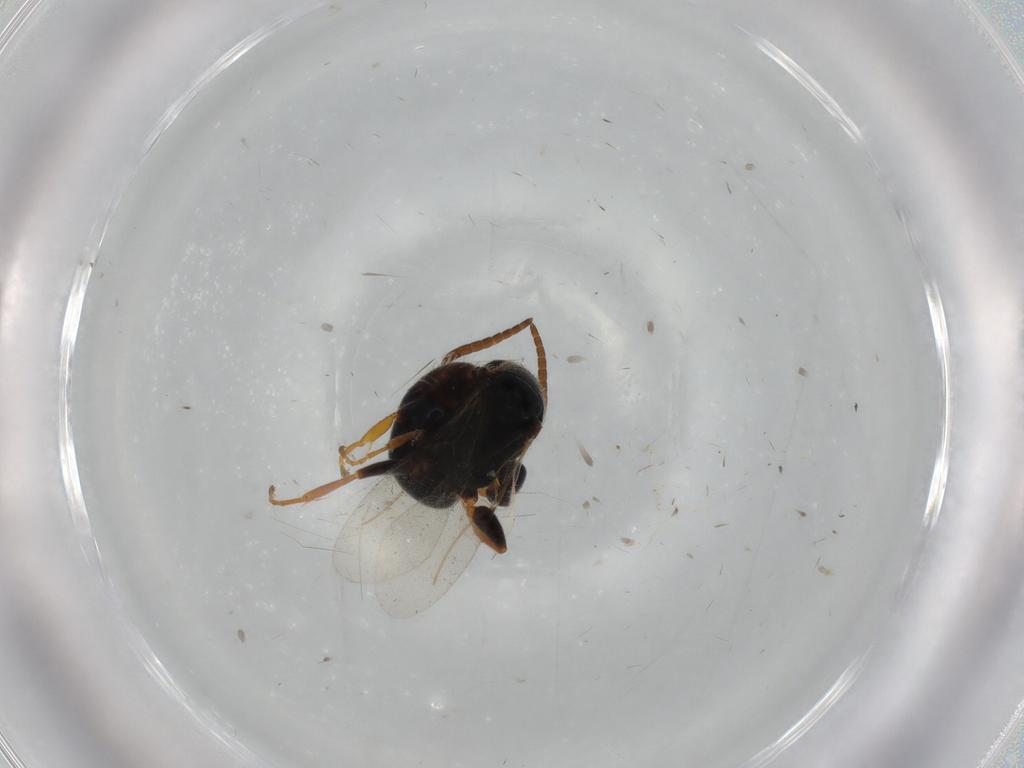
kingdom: Animalia
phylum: Arthropoda
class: Insecta
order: Hymenoptera
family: Bethylidae
